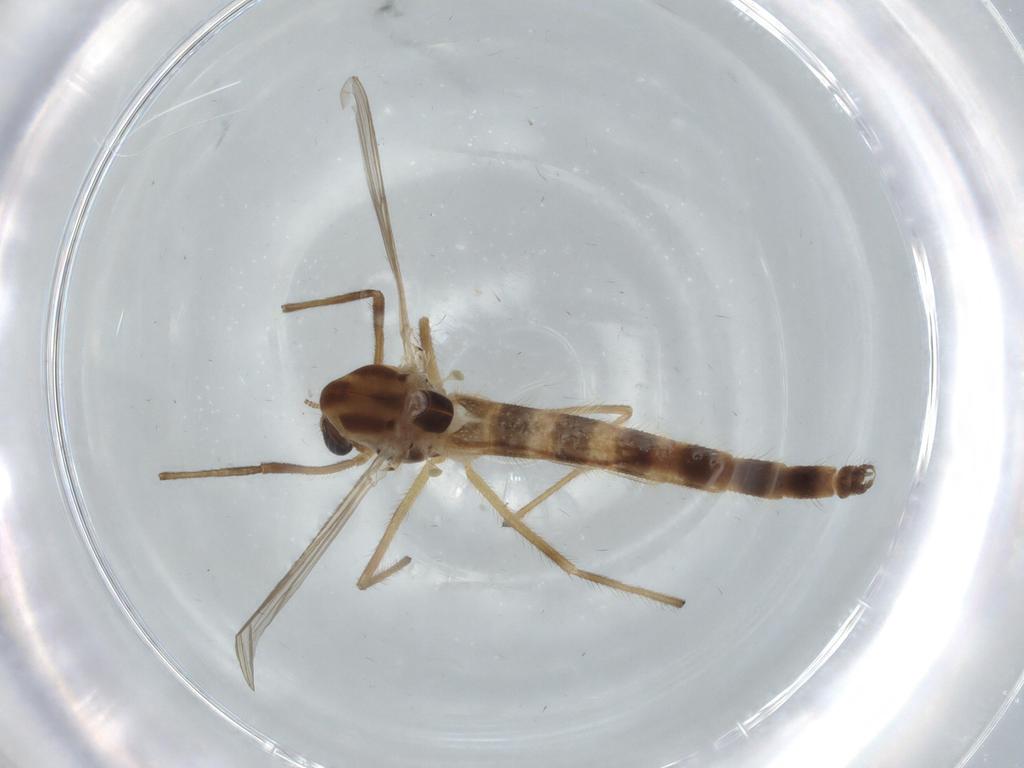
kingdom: Animalia
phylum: Arthropoda
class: Insecta
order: Diptera
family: Chironomidae
